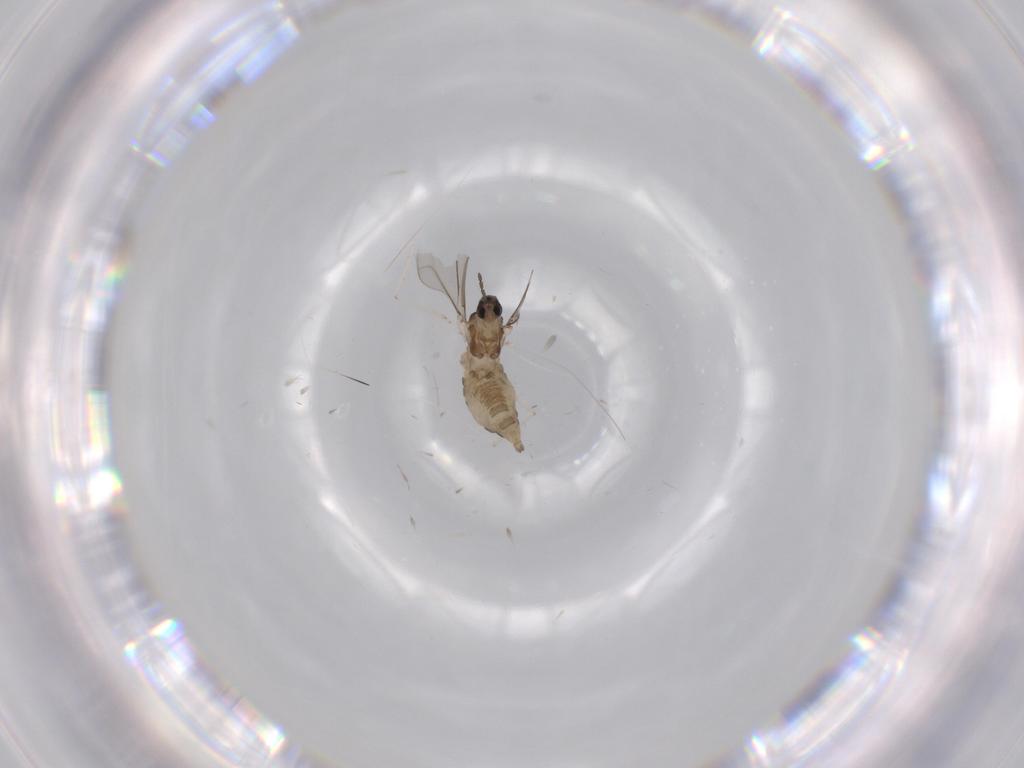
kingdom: Animalia
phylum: Arthropoda
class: Insecta
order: Diptera
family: Cecidomyiidae
